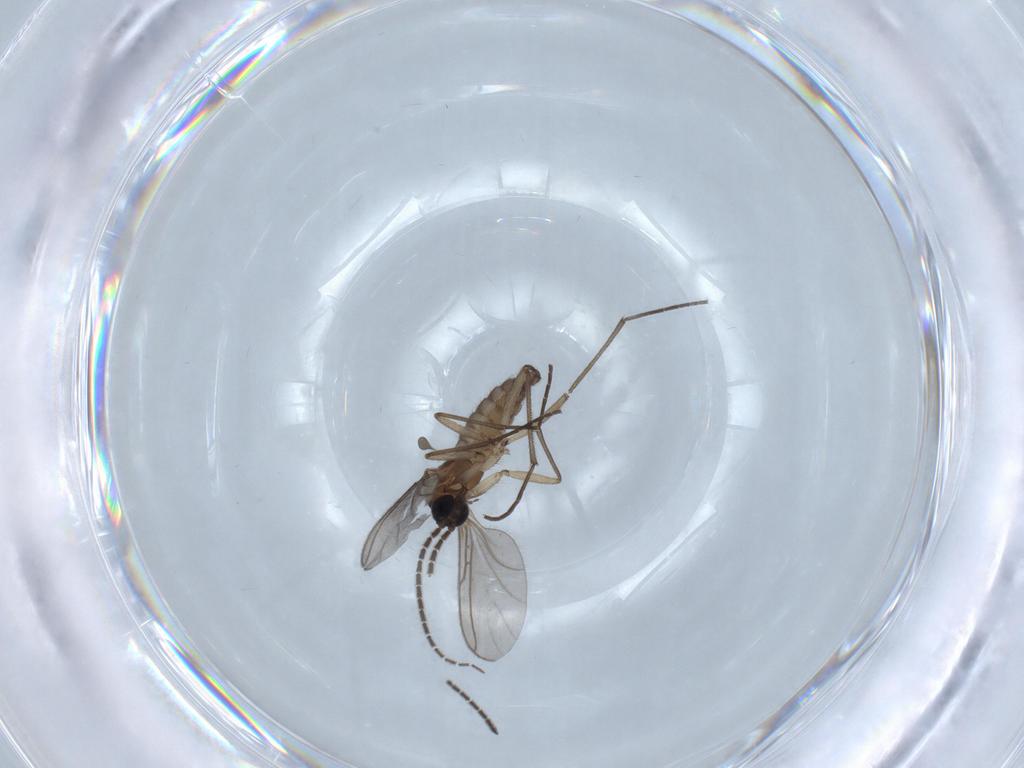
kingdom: Animalia
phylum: Arthropoda
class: Insecta
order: Diptera
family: Sciaridae
